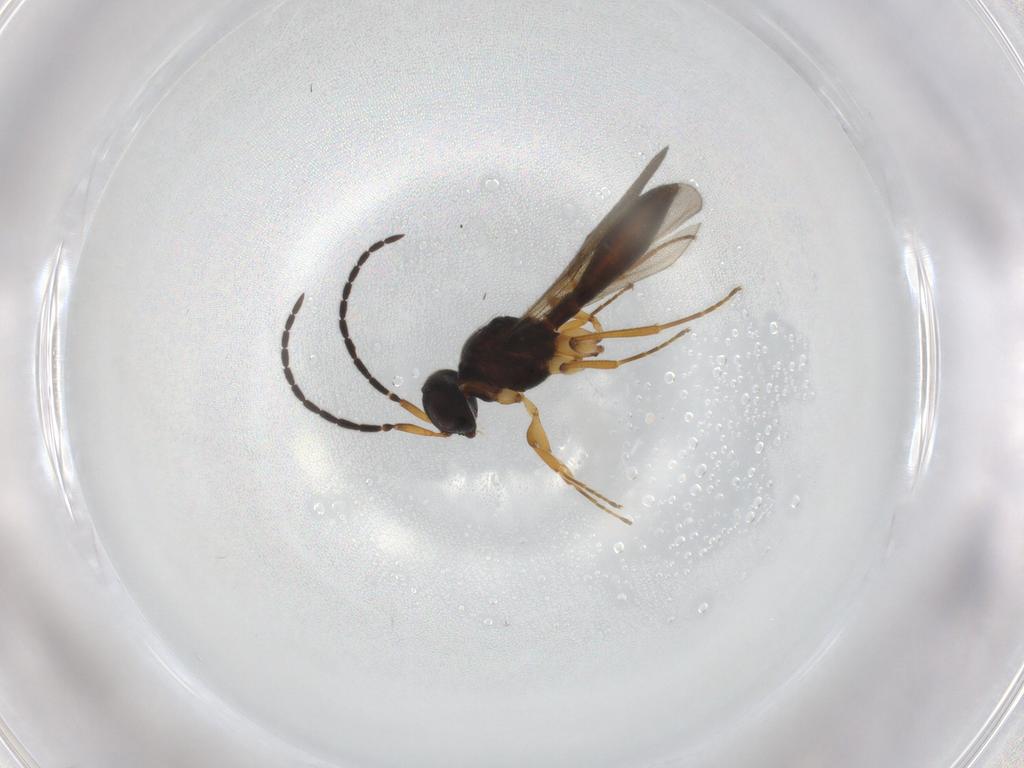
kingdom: Animalia
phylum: Arthropoda
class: Insecta
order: Hymenoptera
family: Scelionidae
